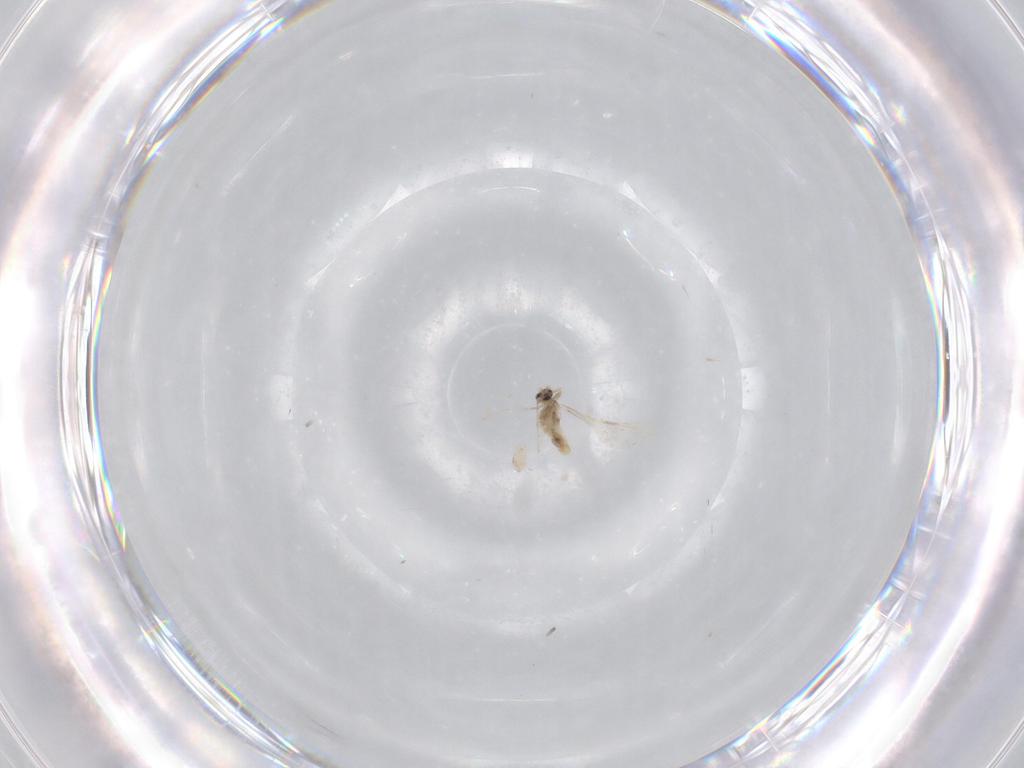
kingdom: Animalia
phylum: Arthropoda
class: Insecta
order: Diptera
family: Cecidomyiidae
